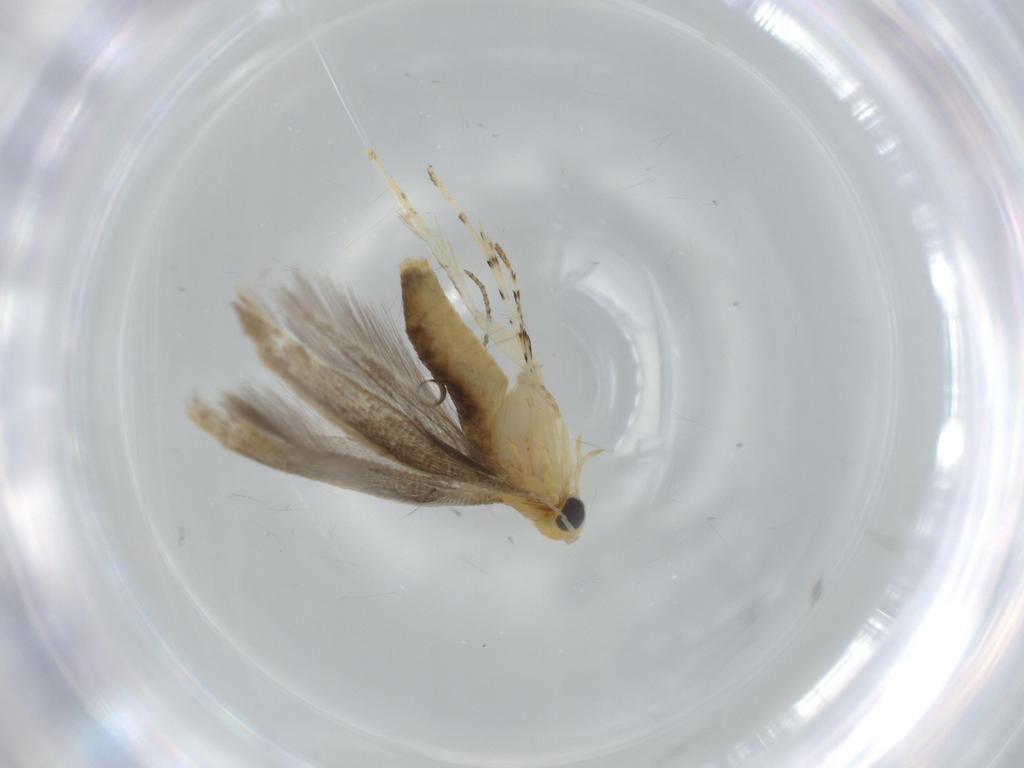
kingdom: Animalia
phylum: Arthropoda
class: Insecta
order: Lepidoptera
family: Argyresthiidae
